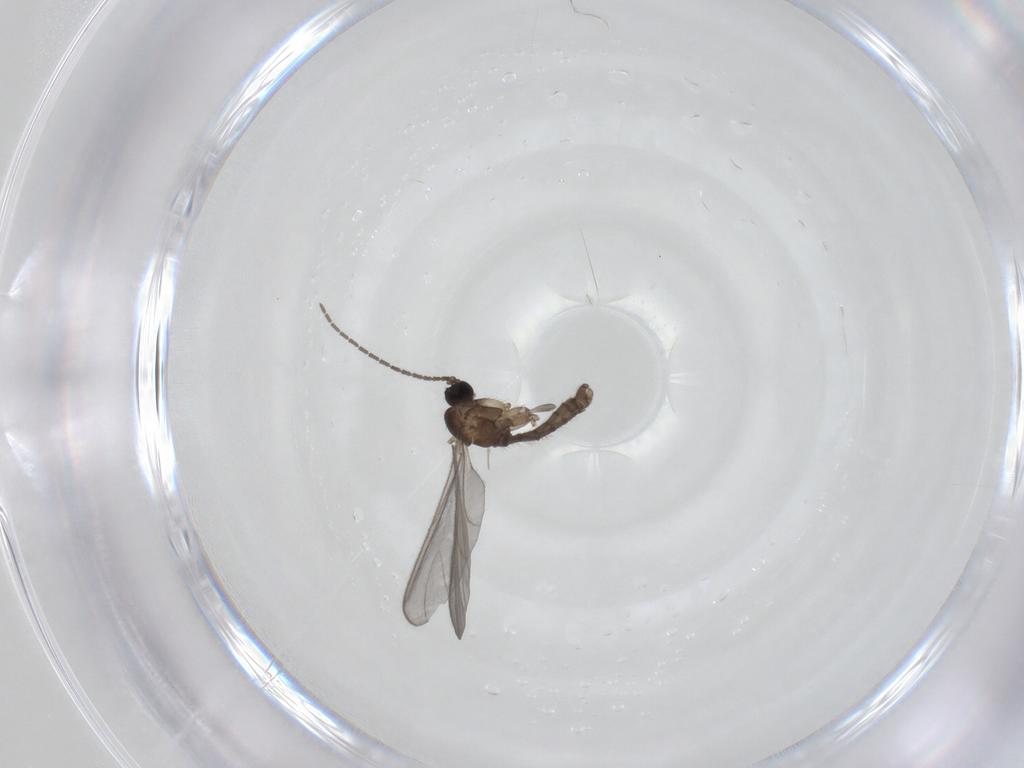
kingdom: Animalia
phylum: Arthropoda
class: Insecta
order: Diptera
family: Sciaridae
